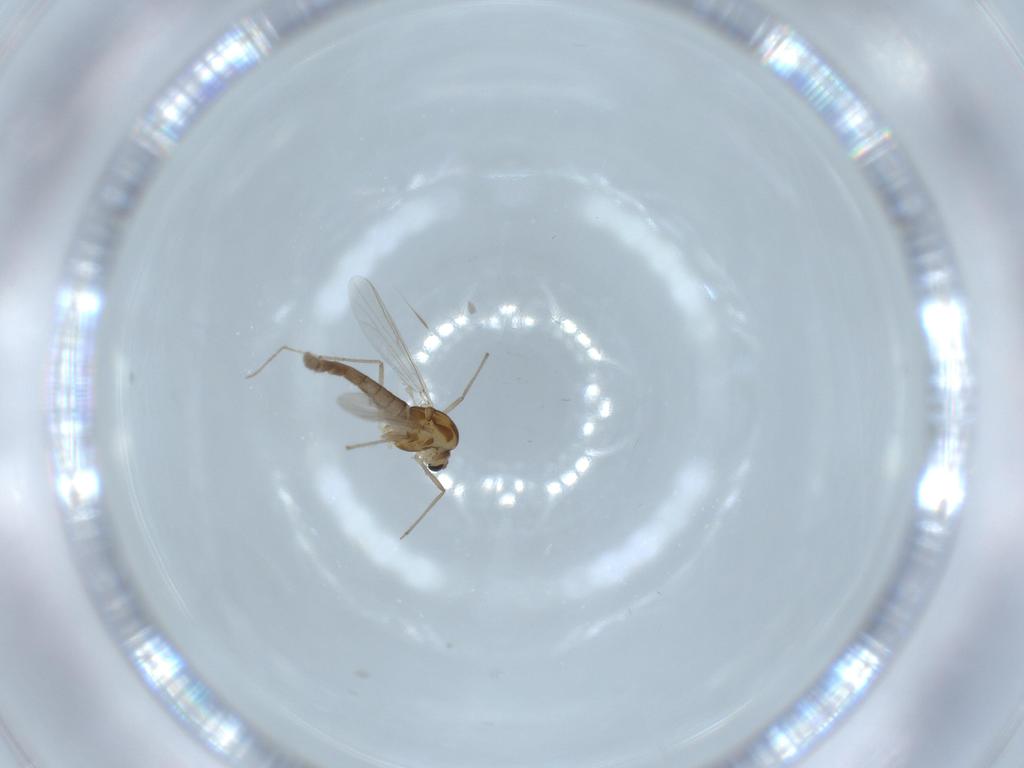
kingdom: Animalia
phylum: Arthropoda
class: Insecta
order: Diptera
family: Chironomidae
